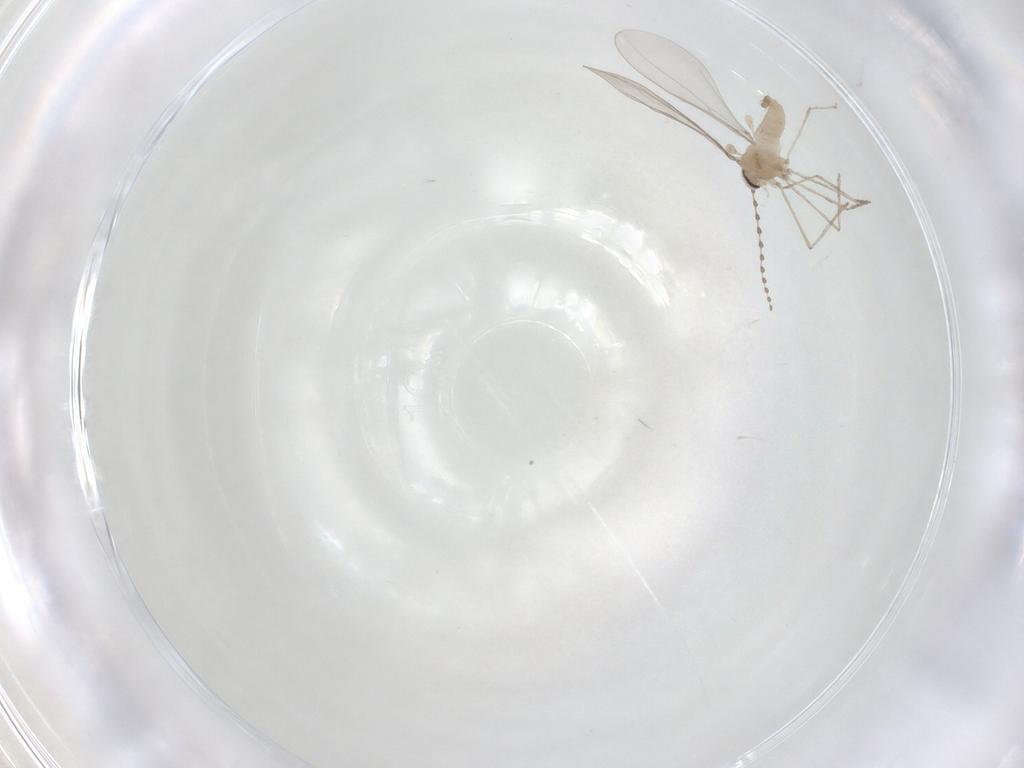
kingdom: Animalia
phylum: Arthropoda
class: Insecta
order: Diptera
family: Cecidomyiidae
